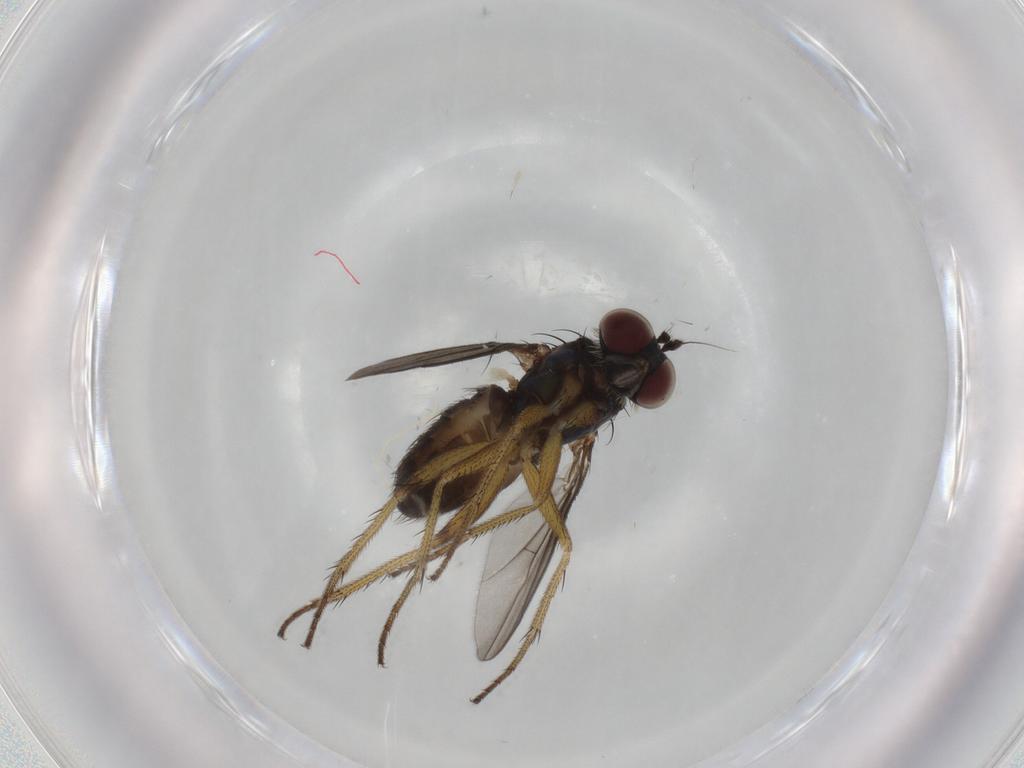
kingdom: Animalia
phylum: Arthropoda
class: Insecta
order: Diptera
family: Dolichopodidae
